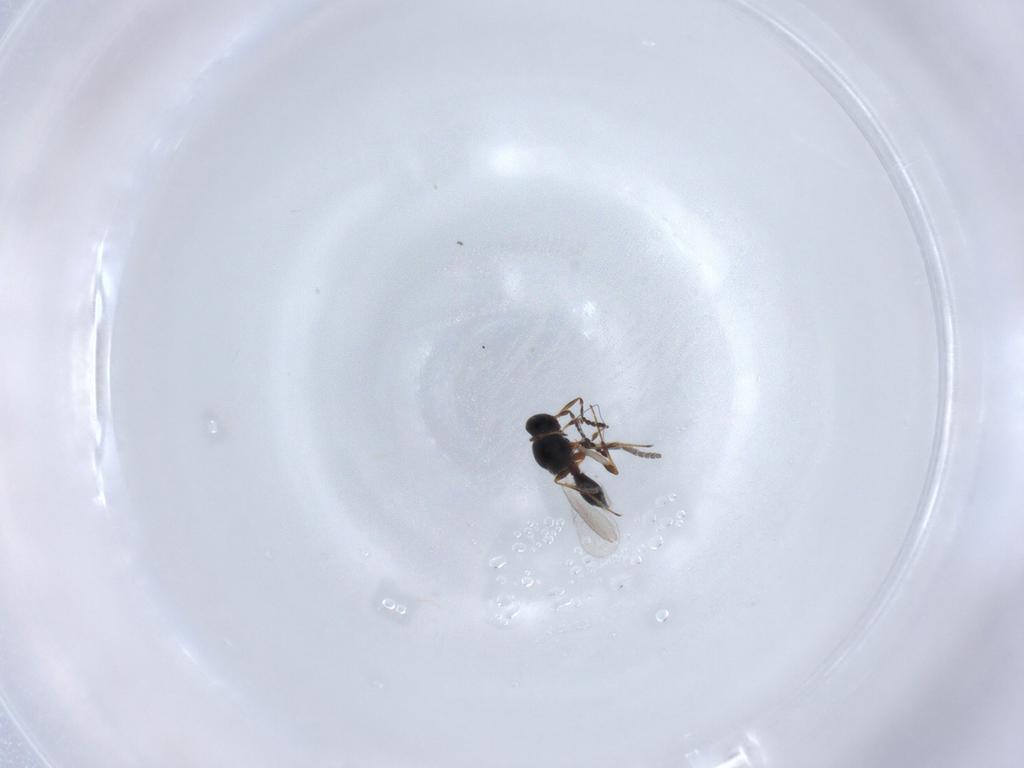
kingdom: Animalia
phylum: Arthropoda
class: Insecta
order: Hymenoptera
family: Platygastridae
